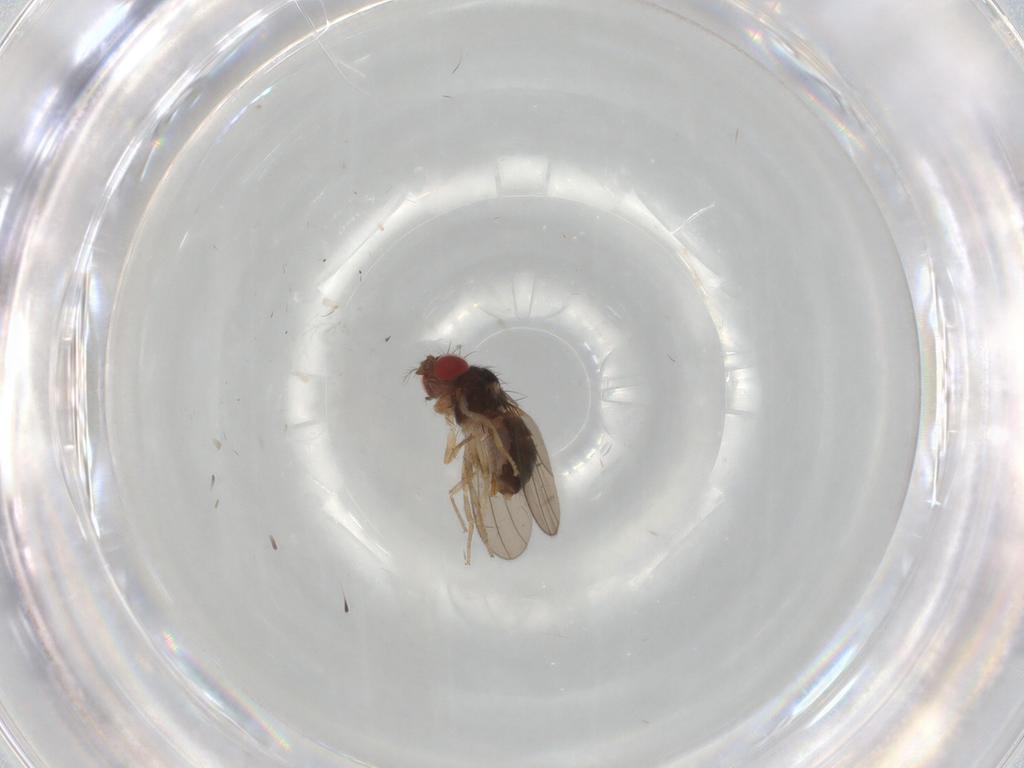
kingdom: Animalia
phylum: Arthropoda
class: Insecta
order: Diptera
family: Drosophilidae
